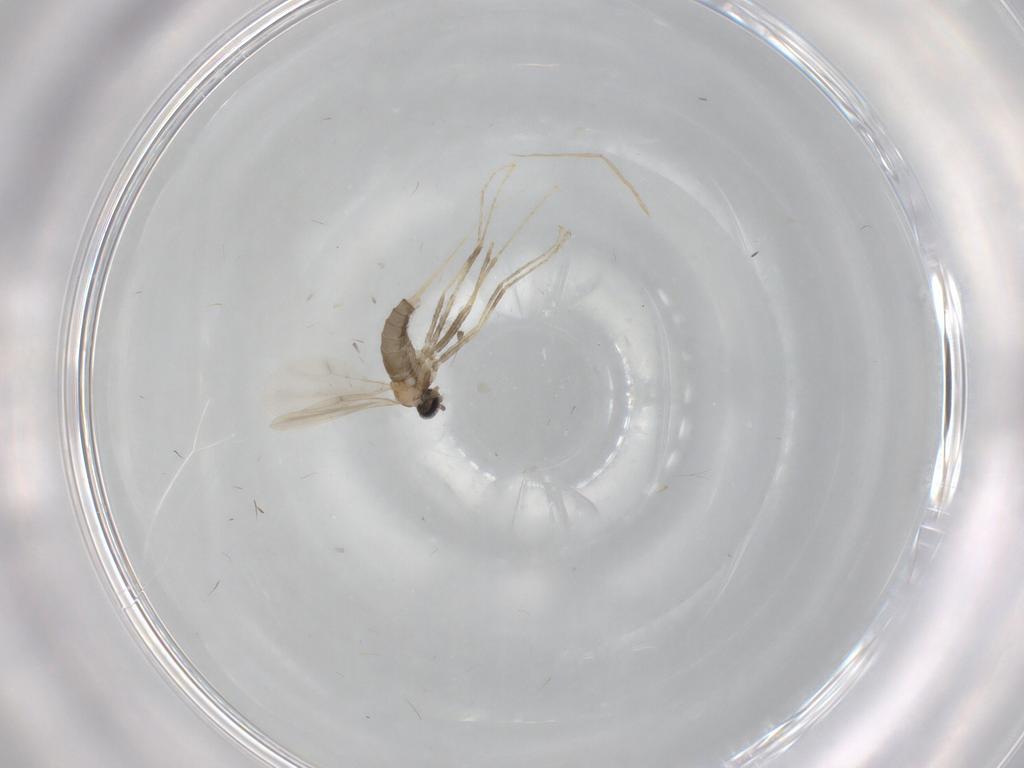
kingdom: Animalia
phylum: Arthropoda
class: Insecta
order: Diptera
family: Cecidomyiidae
